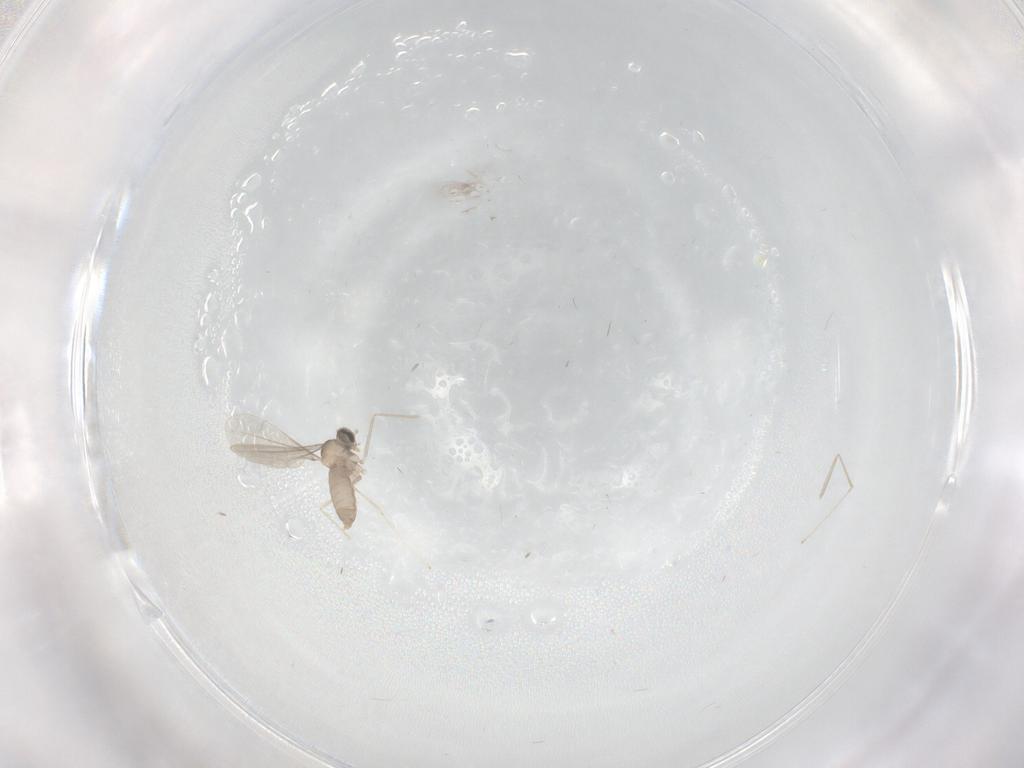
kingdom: Animalia
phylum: Arthropoda
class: Insecta
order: Diptera
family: Cecidomyiidae
